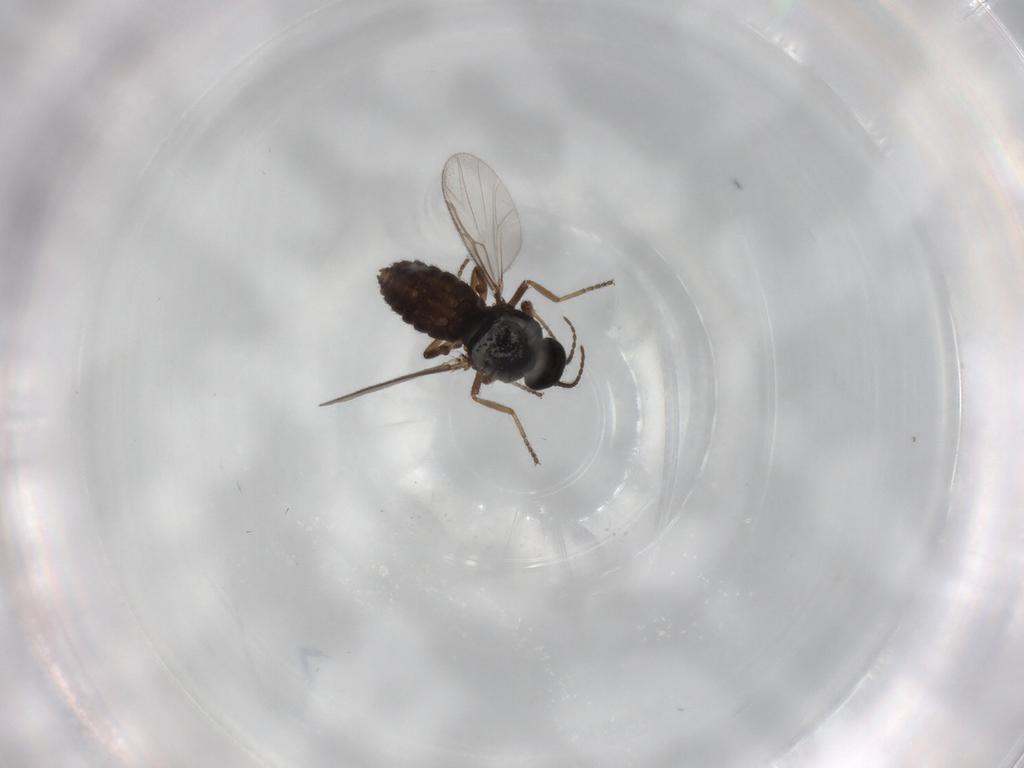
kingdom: Animalia
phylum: Arthropoda
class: Insecta
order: Diptera
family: Ceratopogonidae
